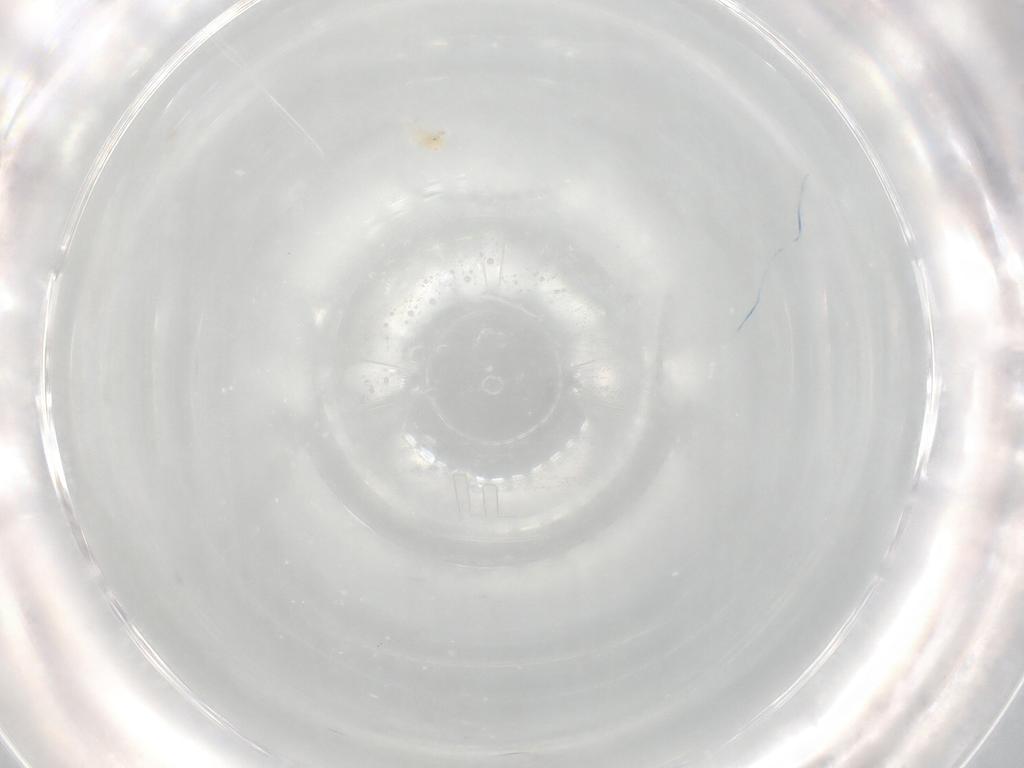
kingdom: Animalia
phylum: Arthropoda
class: Arachnida
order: Trombidiformes
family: Rhagidiidae
